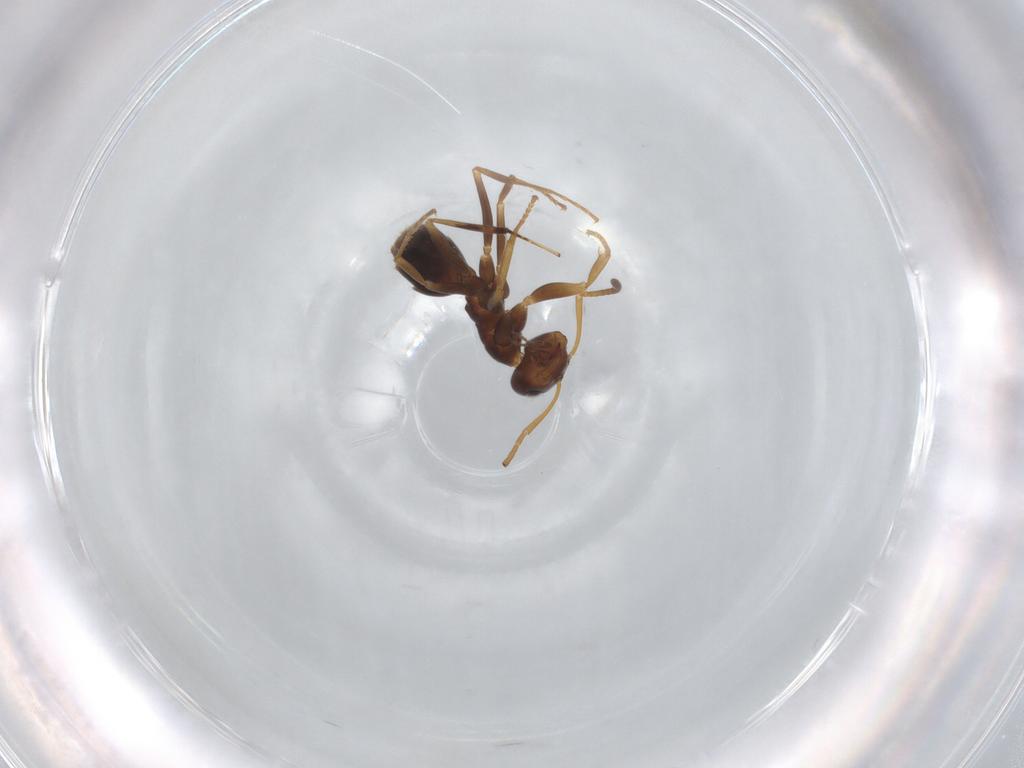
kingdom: Animalia
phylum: Arthropoda
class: Insecta
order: Hymenoptera
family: Formicidae
